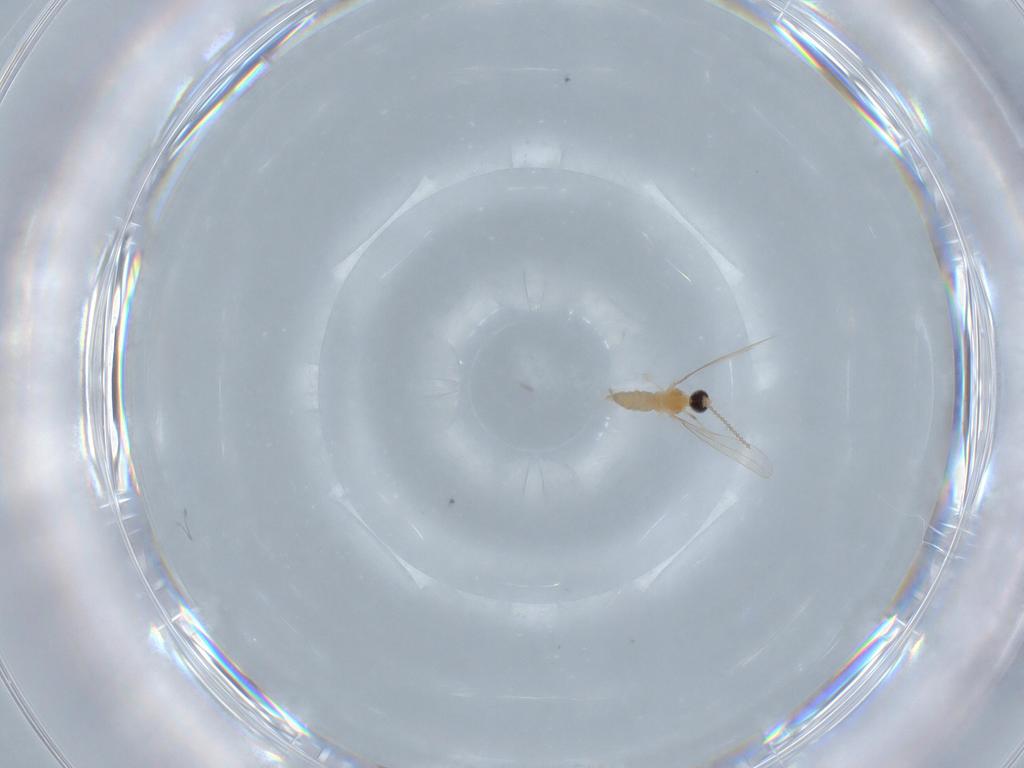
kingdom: Animalia
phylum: Arthropoda
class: Insecta
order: Diptera
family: Cecidomyiidae
